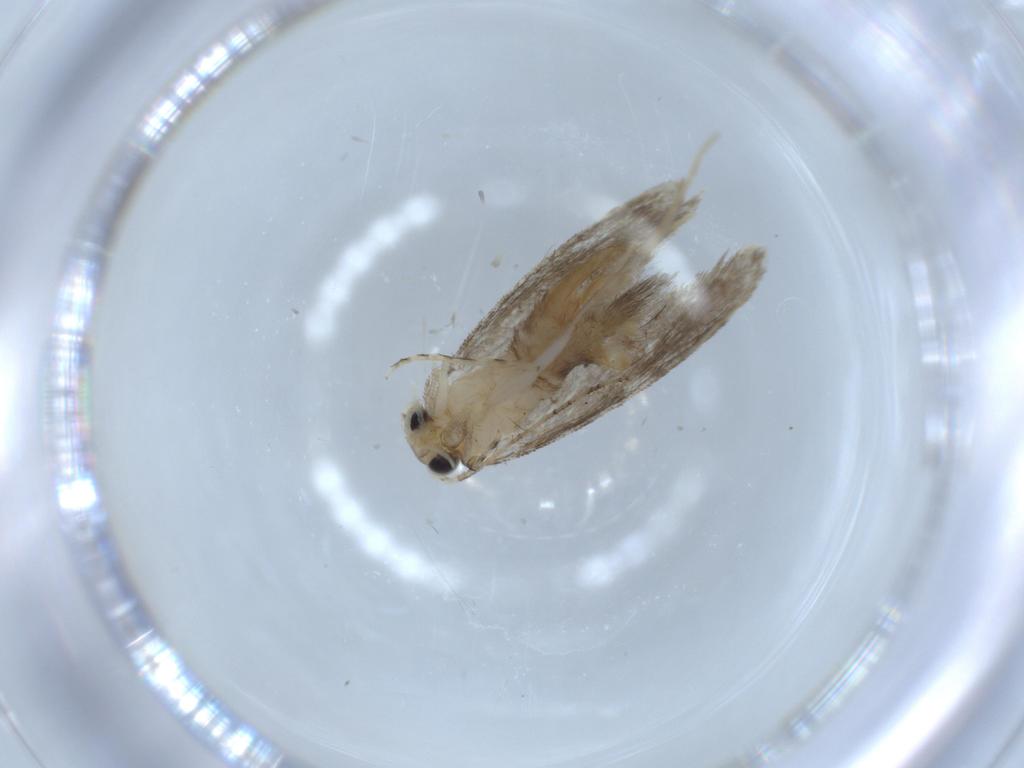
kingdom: Animalia
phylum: Arthropoda
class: Insecta
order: Lepidoptera
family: Tineidae
